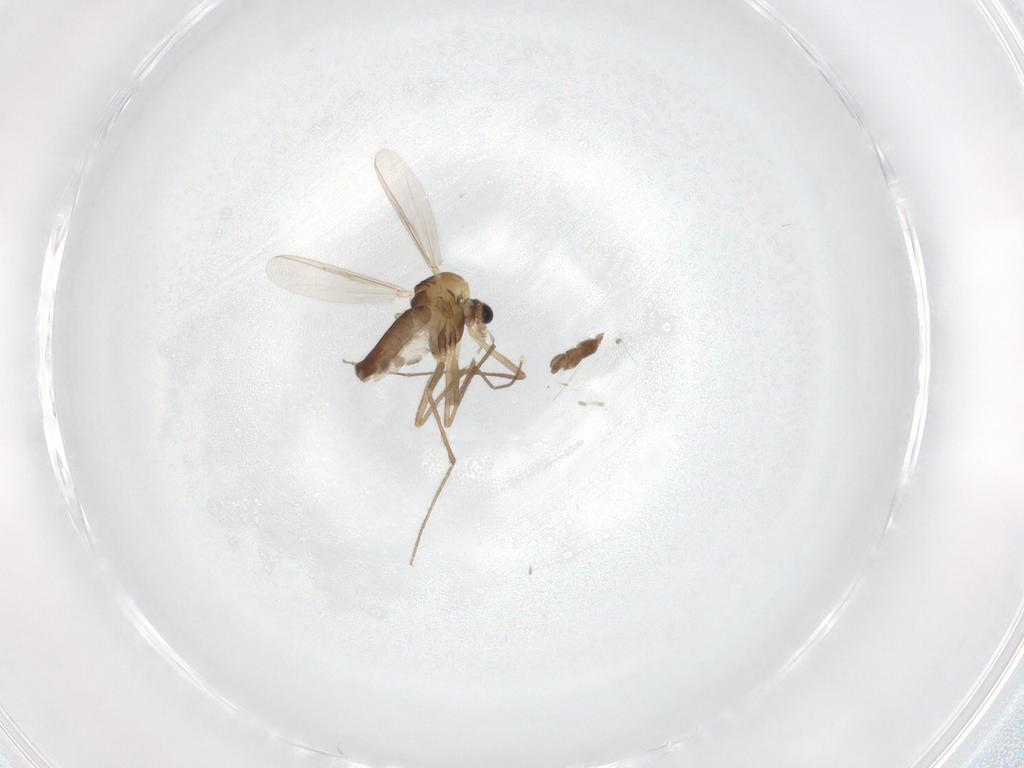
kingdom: Animalia
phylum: Arthropoda
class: Insecta
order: Diptera
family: Chironomidae
